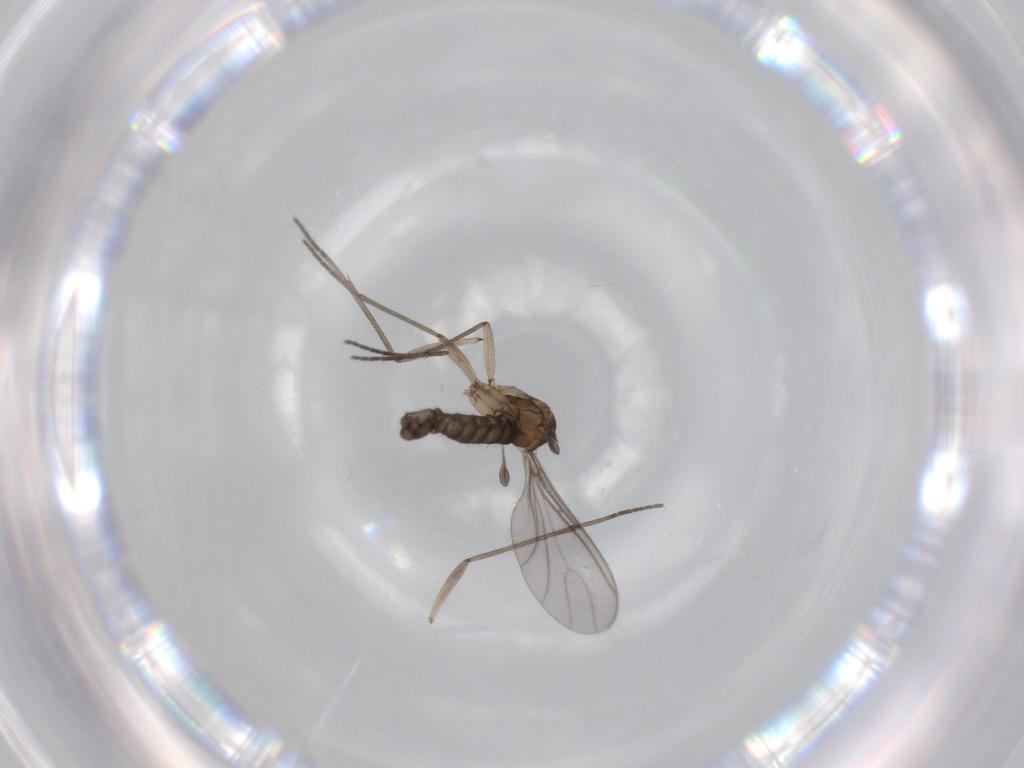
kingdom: Animalia
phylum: Arthropoda
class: Insecta
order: Diptera
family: Sciaridae
